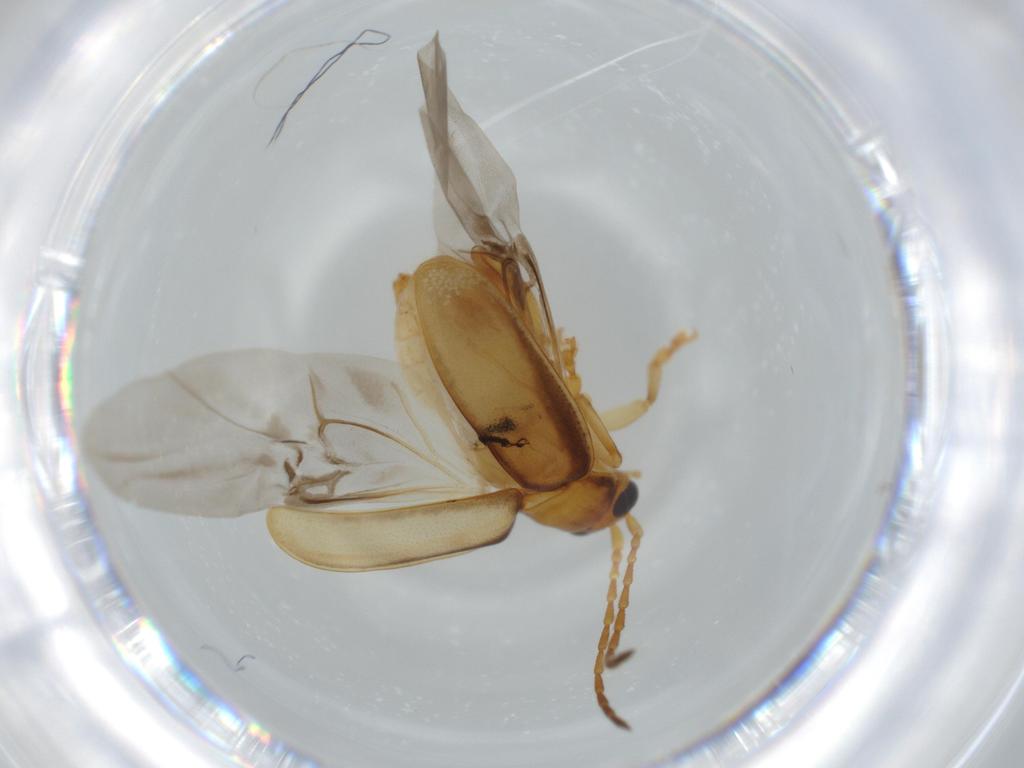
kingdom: Animalia
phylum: Arthropoda
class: Insecta
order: Coleoptera
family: Chrysomelidae
